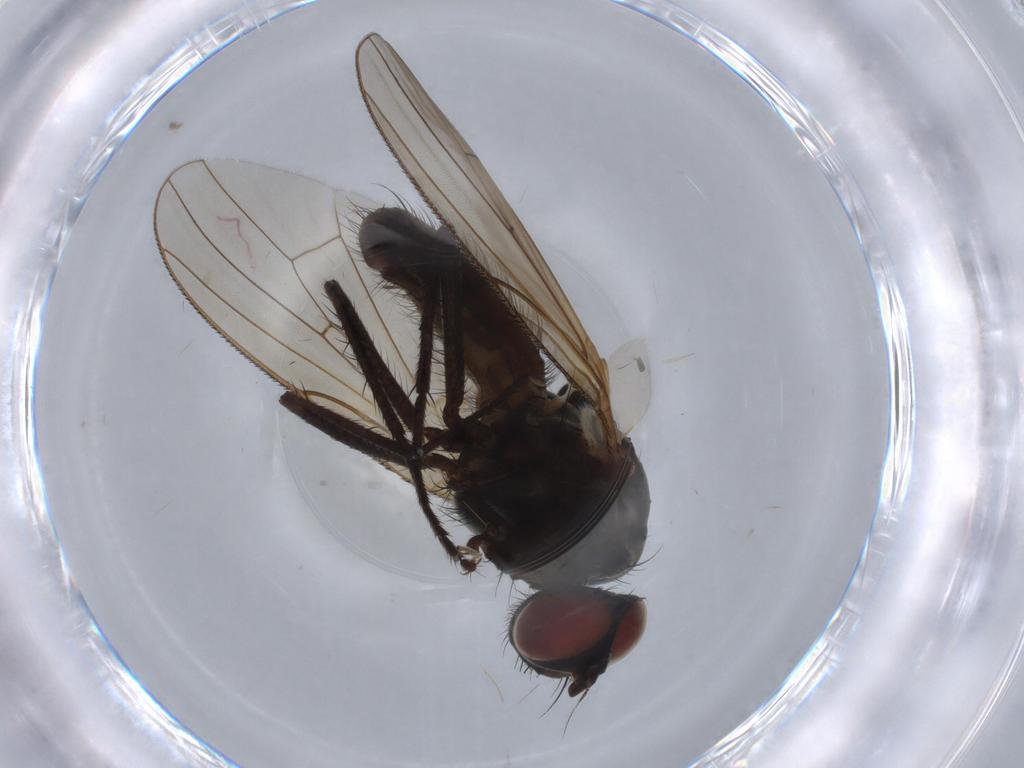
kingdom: Animalia
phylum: Arthropoda
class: Insecta
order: Diptera
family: Anthomyiidae
